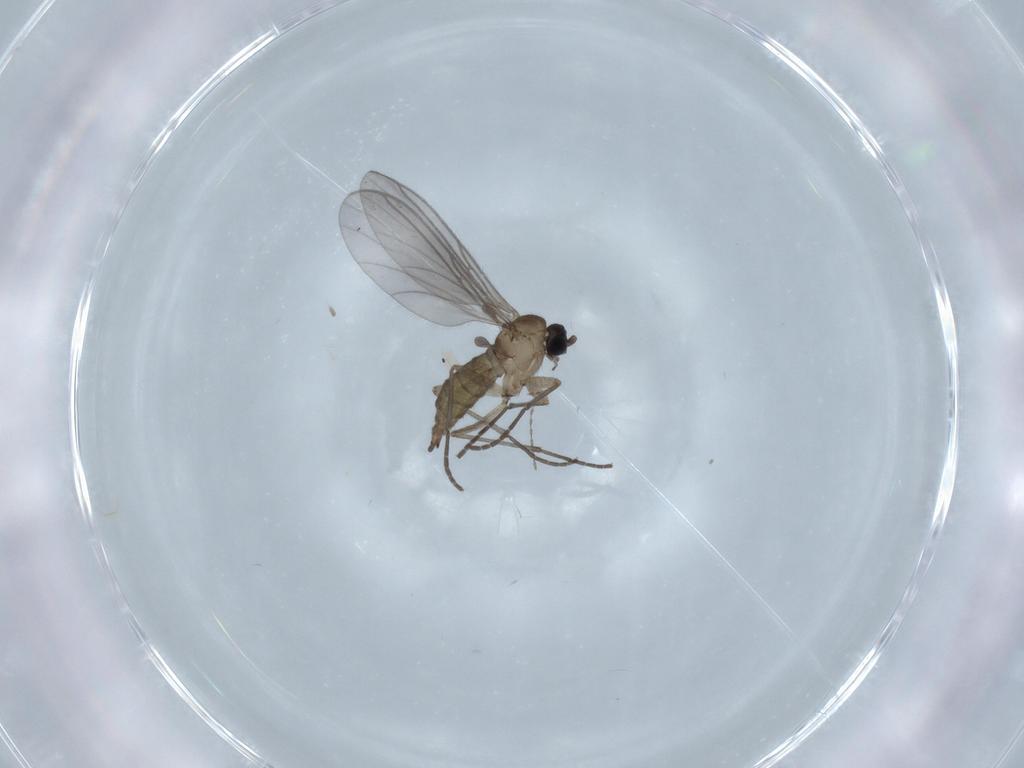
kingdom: Animalia
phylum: Arthropoda
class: Insecta
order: Diptera
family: Sciaridae
